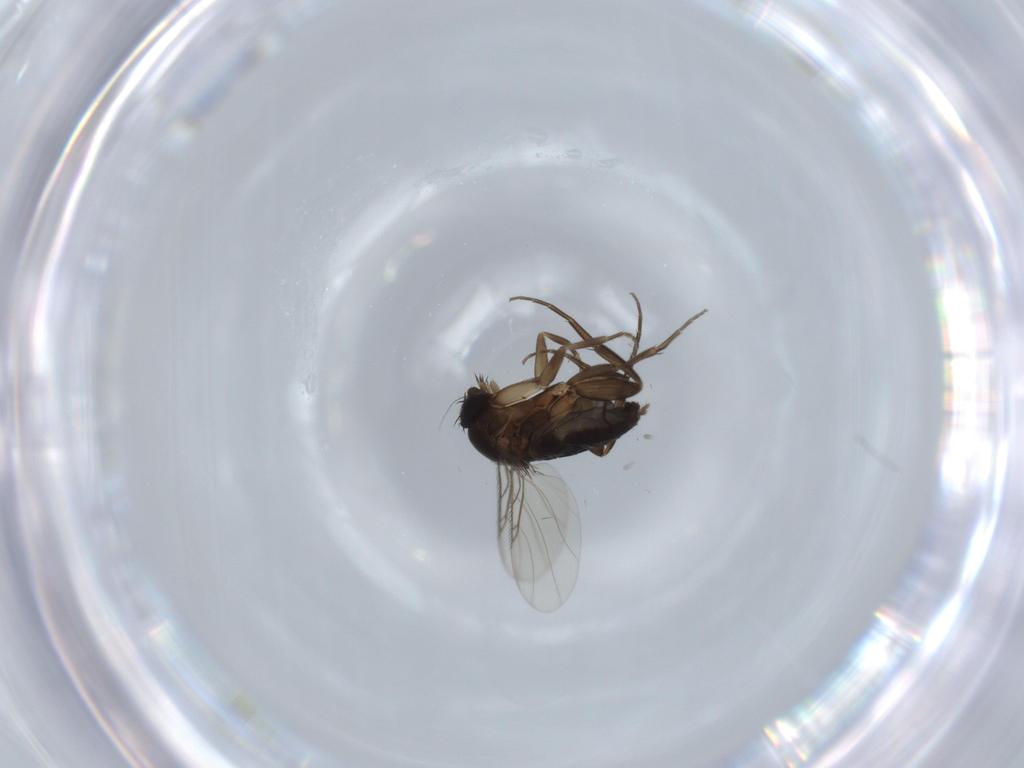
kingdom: Animalia
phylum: Arthropoda
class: Insecta
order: Diptera
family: Phoridae
